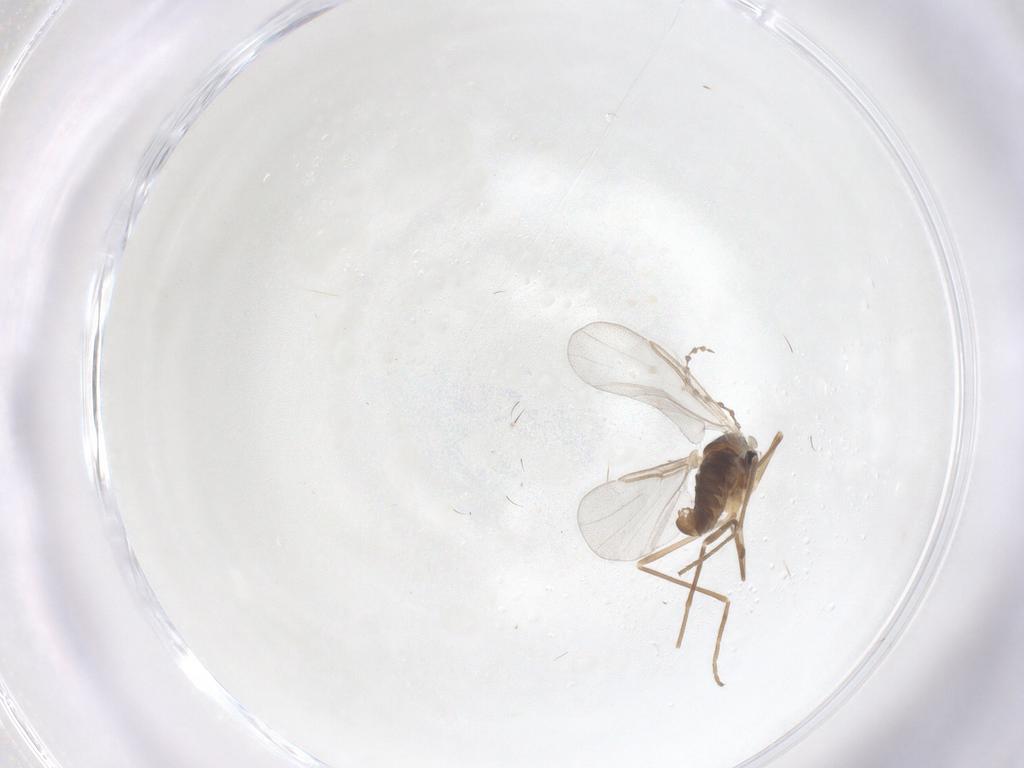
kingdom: Animalia
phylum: Arthropoda
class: Insecta
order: Diptera
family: Cecidomyiidae
